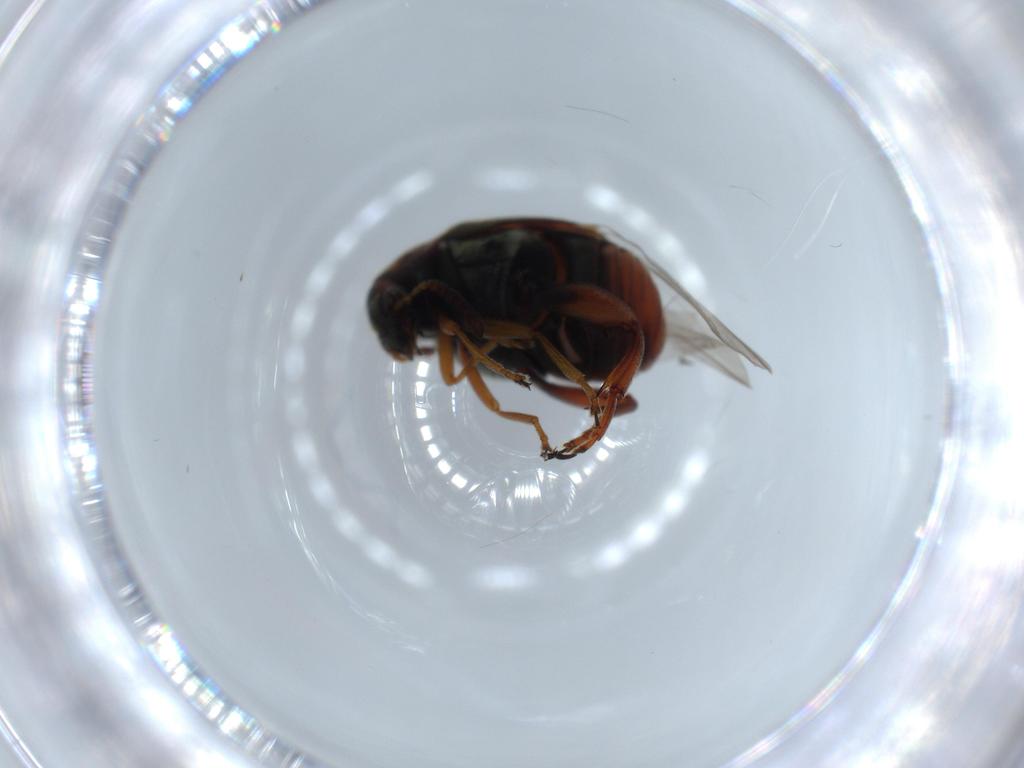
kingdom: Animalia
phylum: Arthropoda
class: Insecta
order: Coleoptera
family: Chrysomelidae
